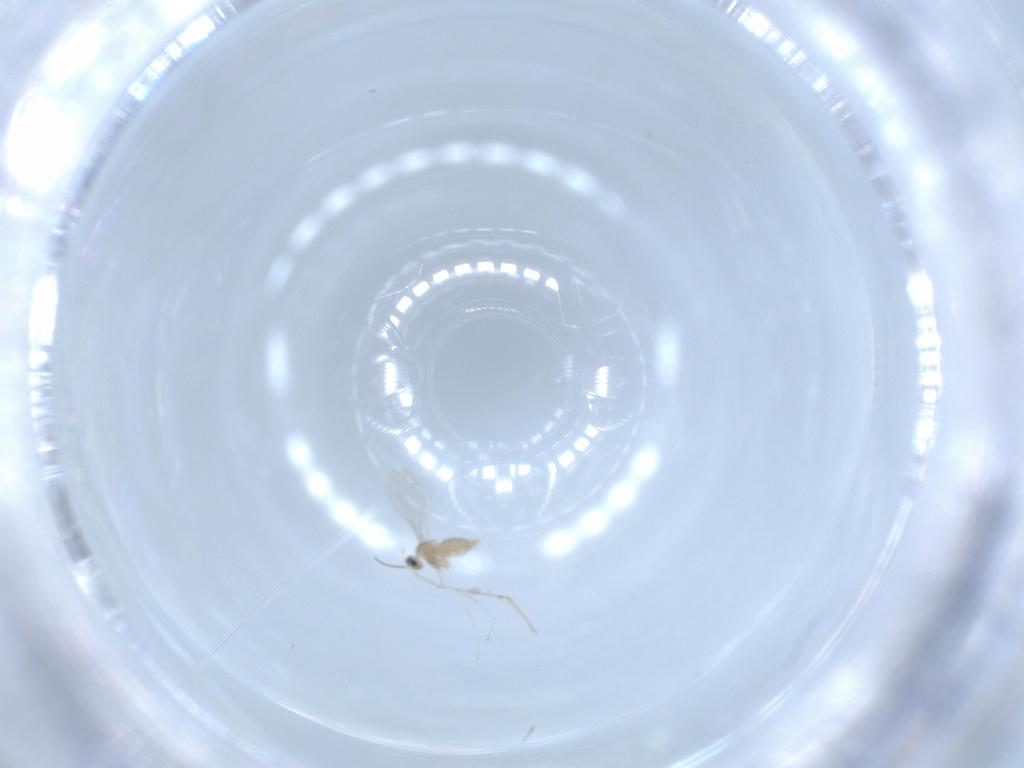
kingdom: Animalia
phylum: Arthropoda
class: Insecta
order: Diptera
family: Cecidomyiidae
